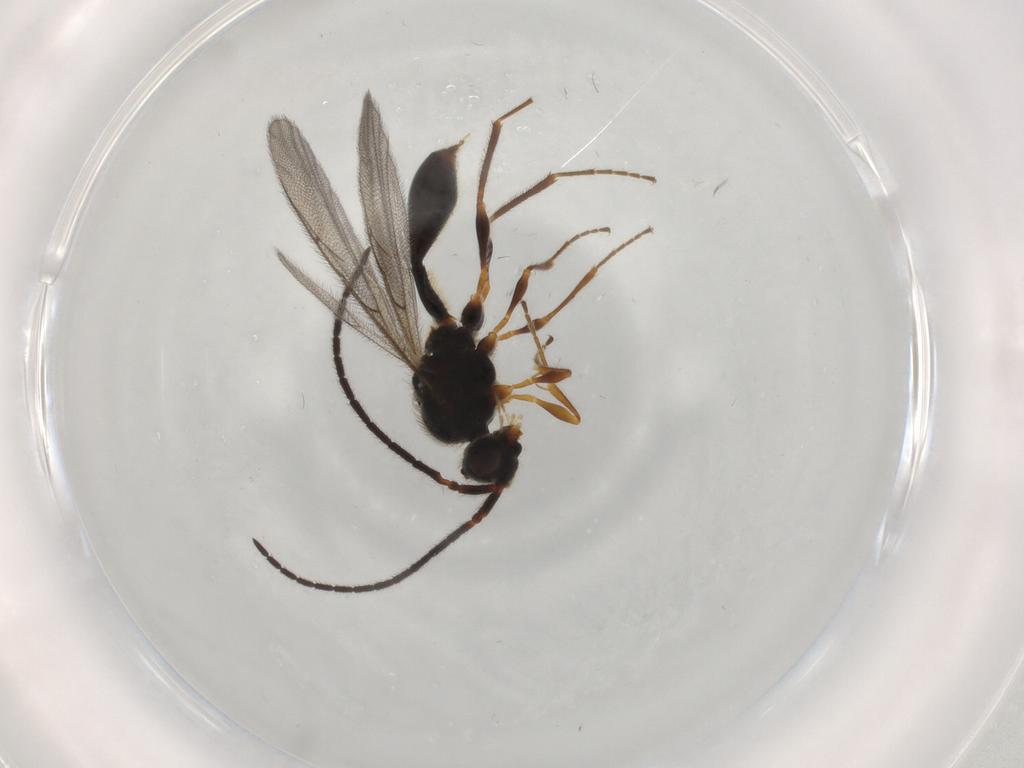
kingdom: Animalia
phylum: Arthropoda
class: Insecta
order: Hymenoptera
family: Diapriidae
